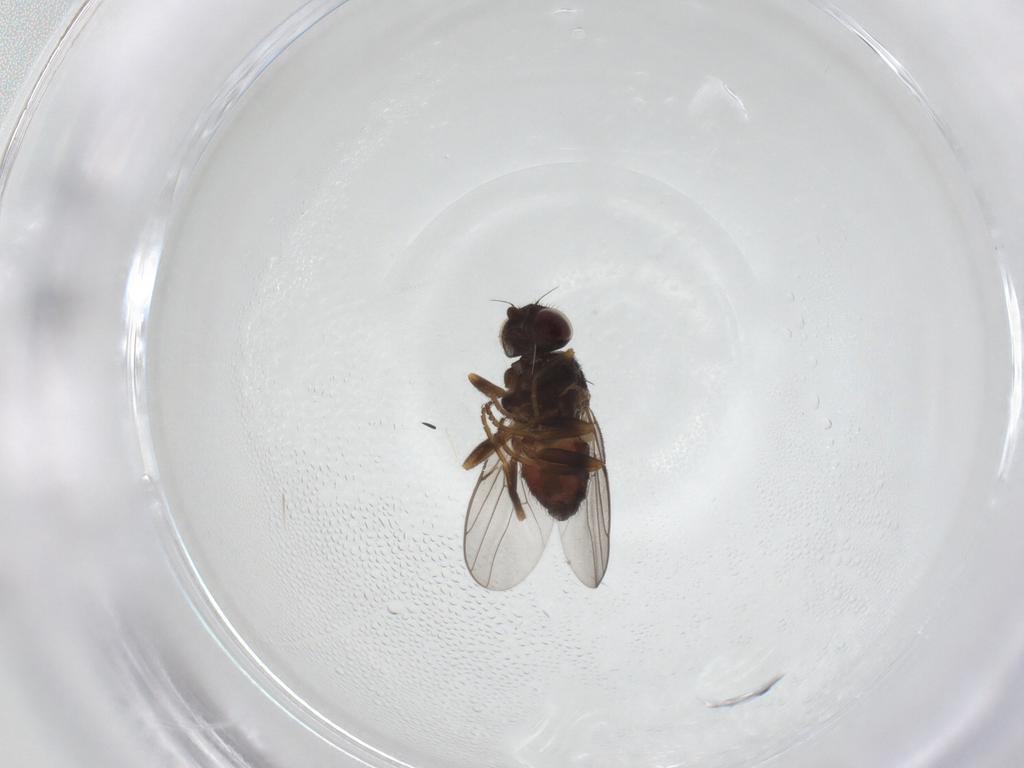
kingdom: Animalia
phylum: Arthropoda
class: Insecta
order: Diptera
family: Chloropidae
